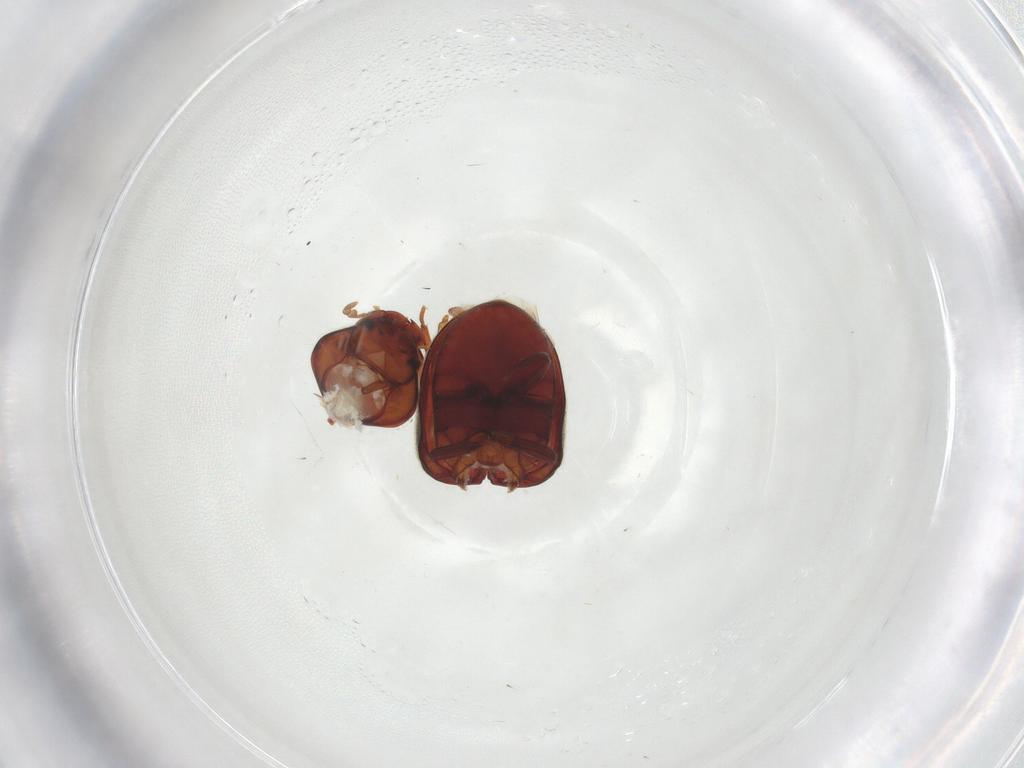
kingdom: Animalia
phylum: Arthropoda
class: Insecta
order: Coleoptera
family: Ptinidae
